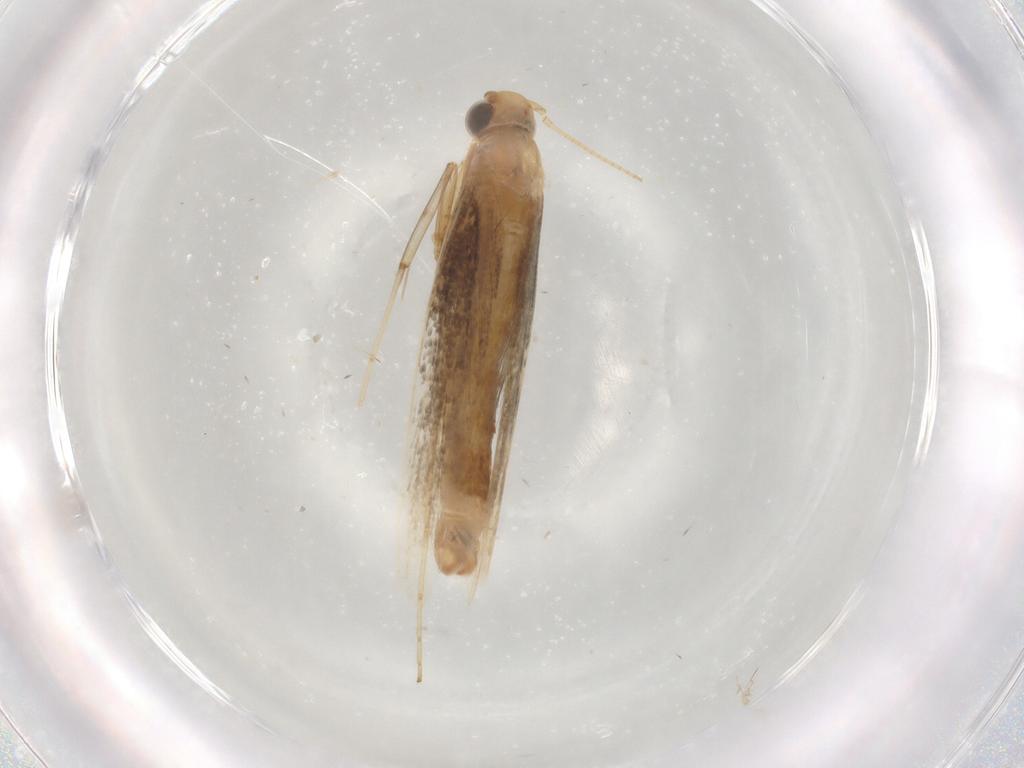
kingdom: Animalia
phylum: Arthropoda
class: Insecta
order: Lepidoptera
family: Gracillariidae
